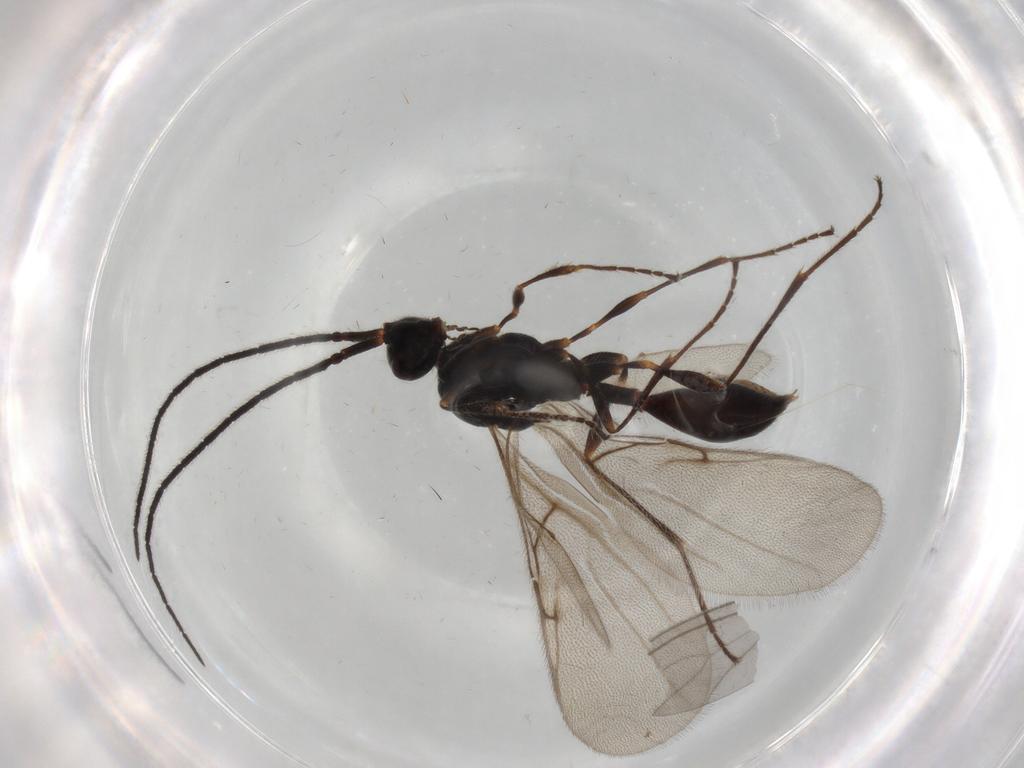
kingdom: Animalia
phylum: Arthropoda
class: Insecta
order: Hymenoptera
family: Diapriidae
